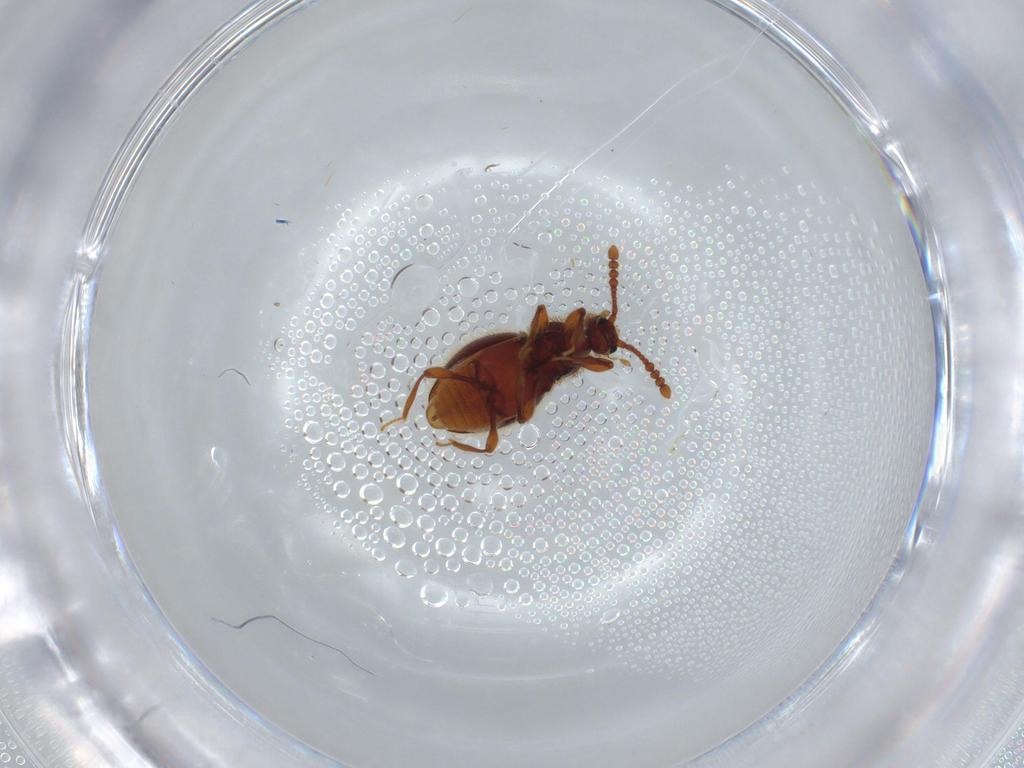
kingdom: Animalia
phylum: Arthropoda
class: Insecta
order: Coleoptera
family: Staphylinidae
